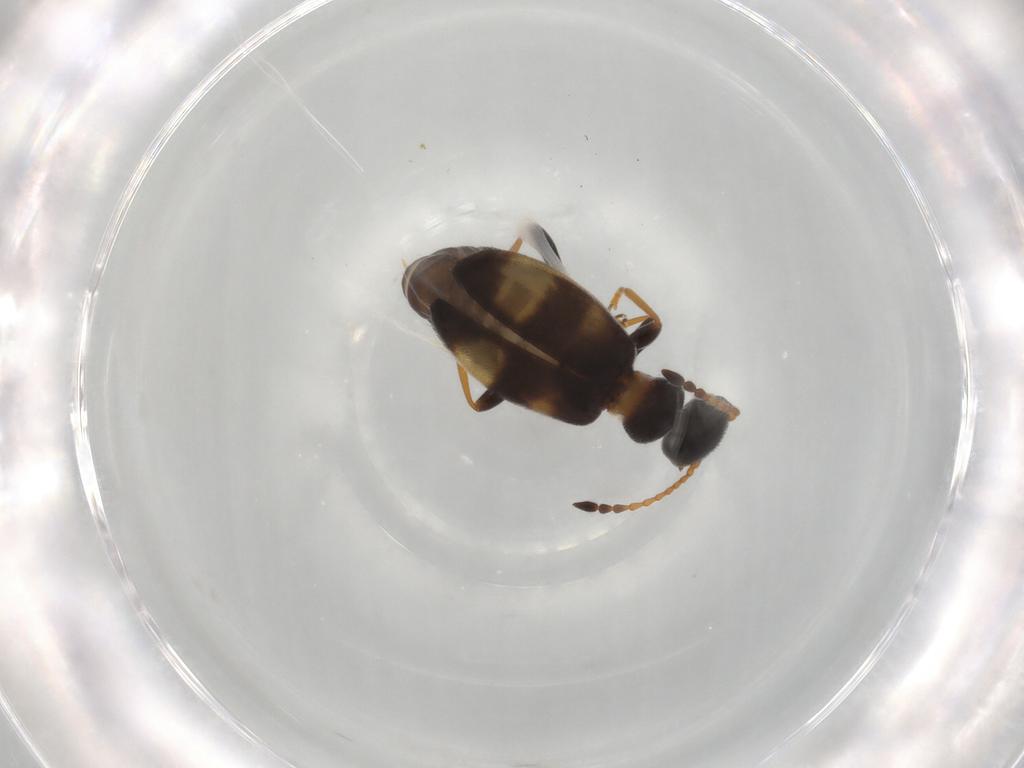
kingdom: Animalia
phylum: Arthropoda
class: Insecta
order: Coleoptera
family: Anthicidae
